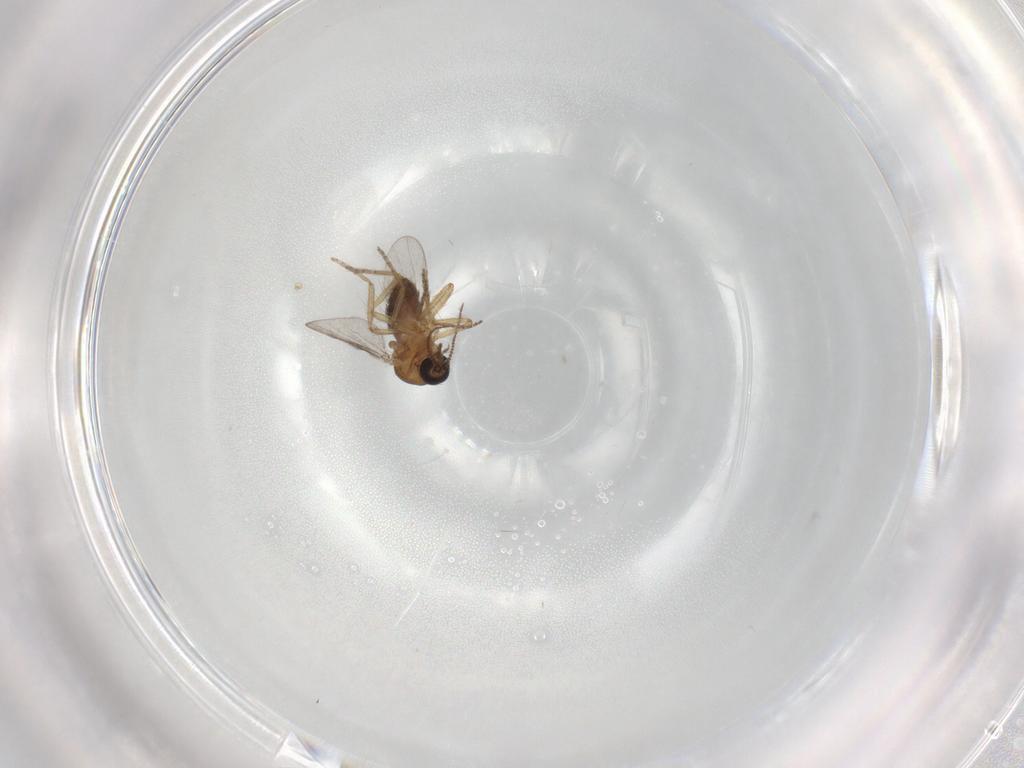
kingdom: Animalia
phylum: Arthropoda
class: Insecta
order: Diptera
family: Ceratopogonidae
